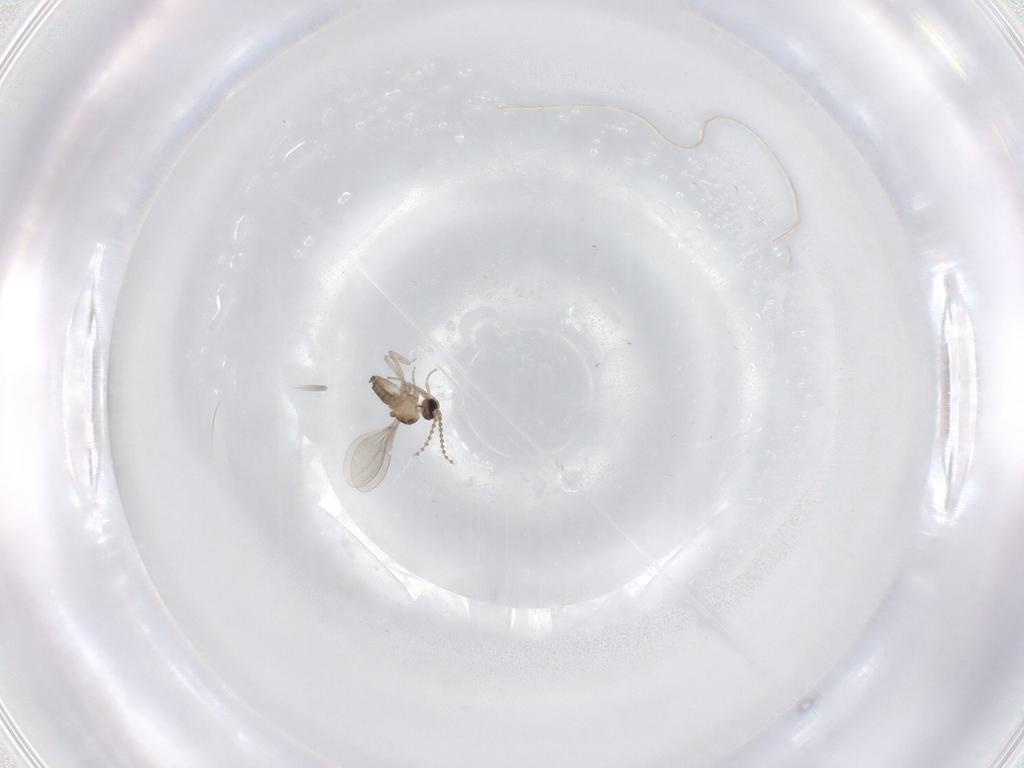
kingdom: Animalia
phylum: Arthropoda
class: Insecta
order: Diptera
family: Cecidomyiidae
